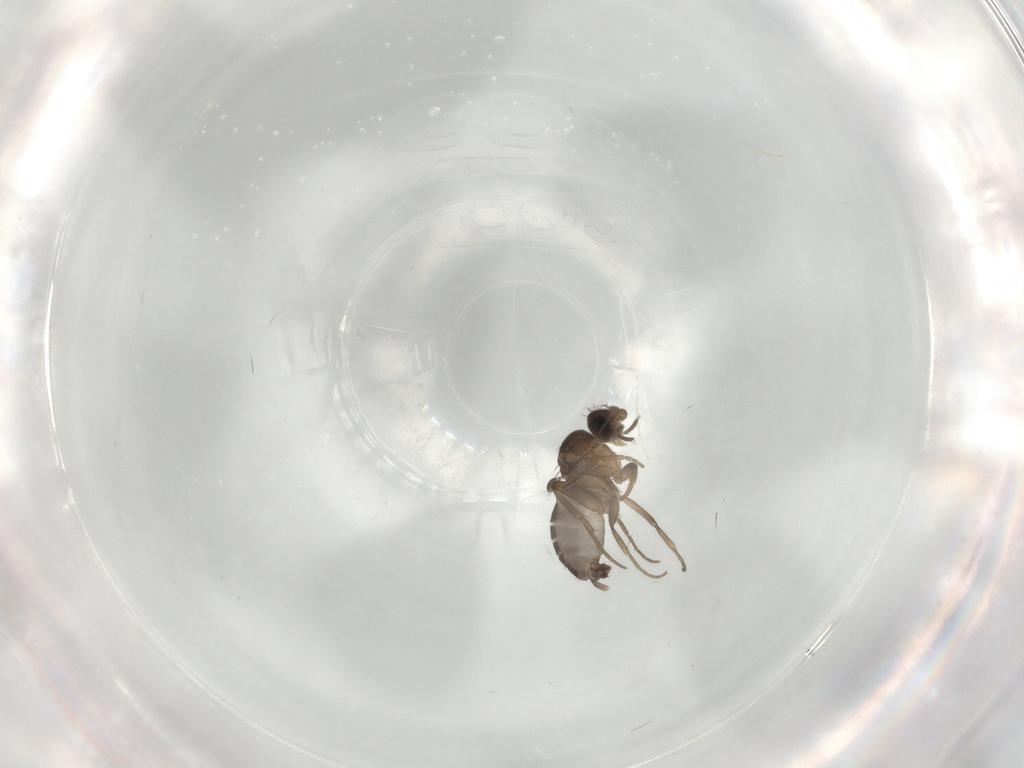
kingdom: Animalia
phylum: Arthropoda
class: Insecta
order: Diptera
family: Phoridae
